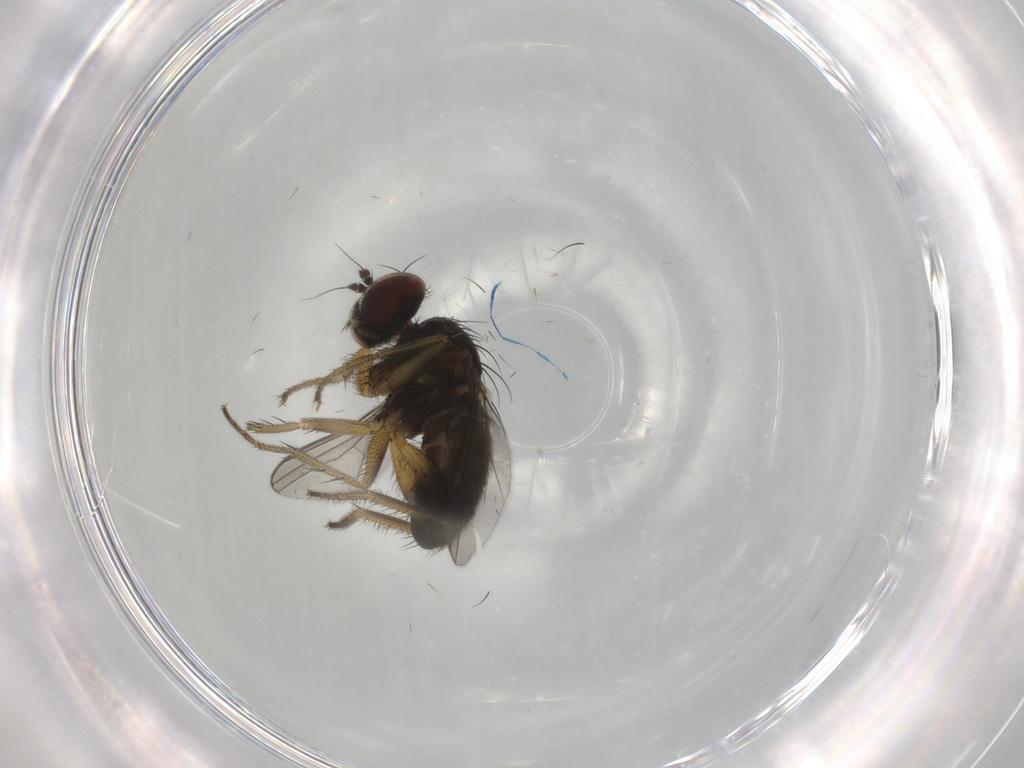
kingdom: Animalia
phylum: Arthropoda
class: Insecta
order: Diptera
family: Dolichopodidae
